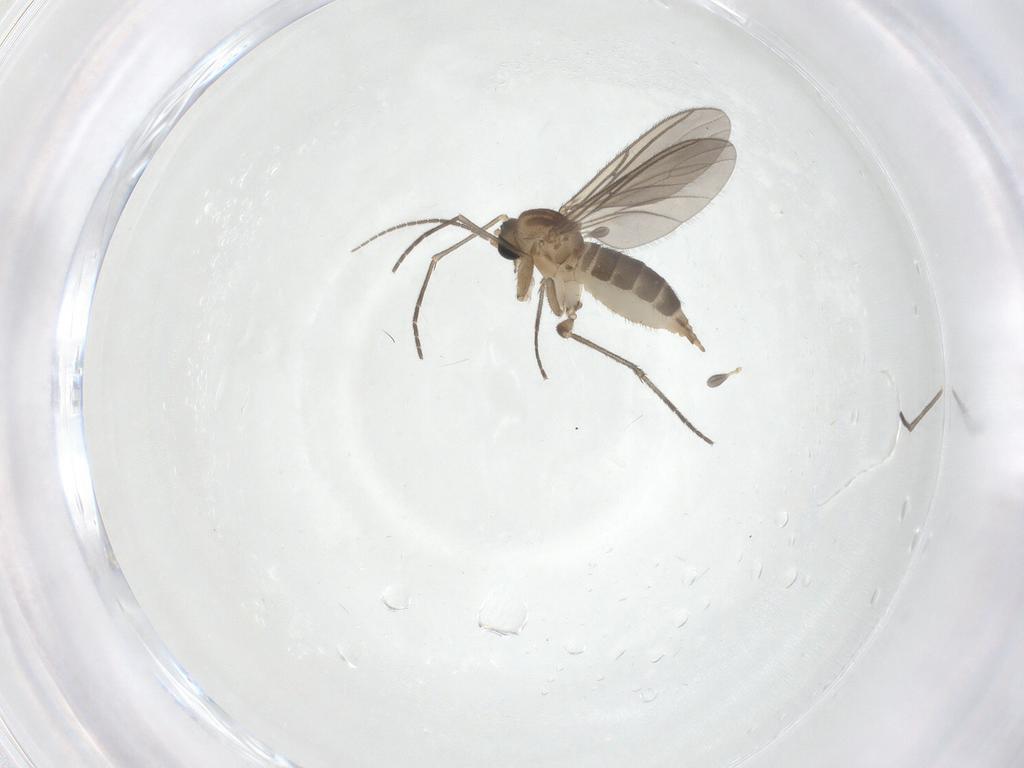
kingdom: Animalia
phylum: Arthropoda
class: Insecta
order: Diptera
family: Sciaridae
